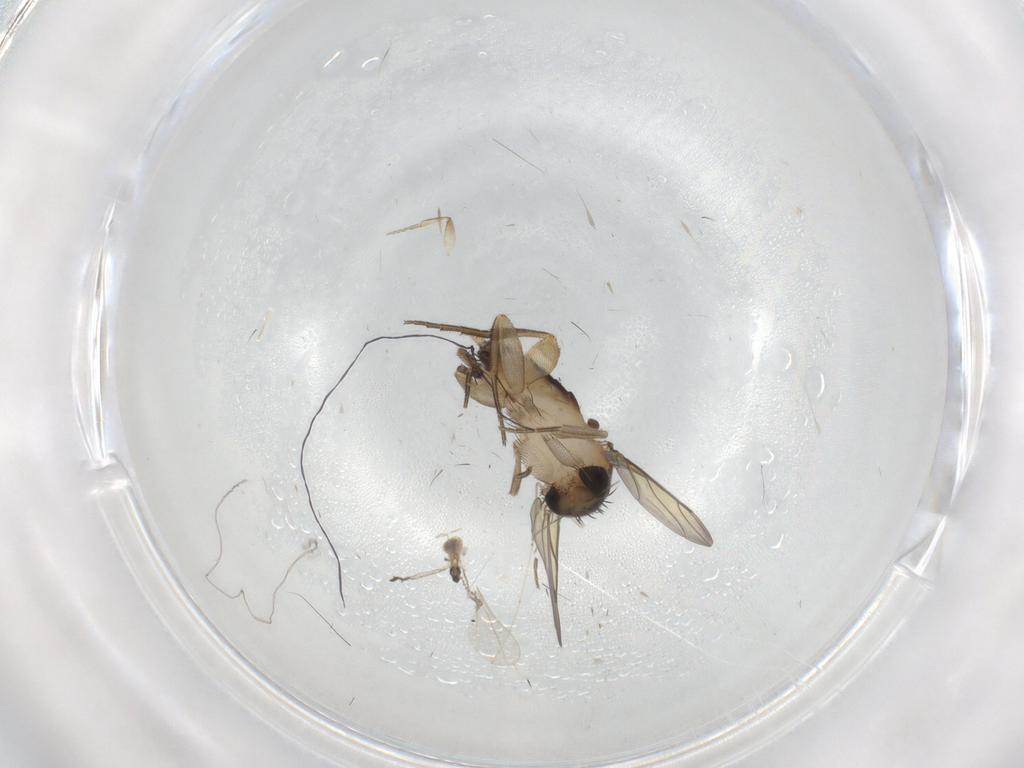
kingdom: Animalia
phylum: Arthropoda
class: Insecta
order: Diptera
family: Cecidomyiidae
